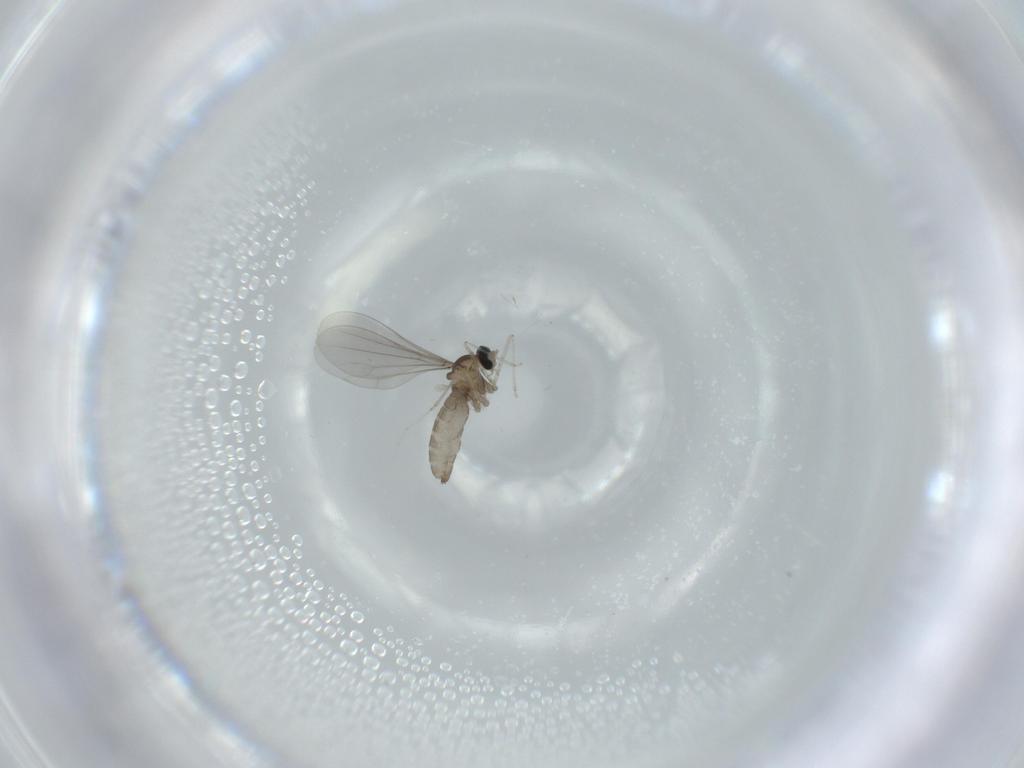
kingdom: Animalia
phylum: Arthropoda
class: Insecta
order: Diptera
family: Cecidomyiidae
